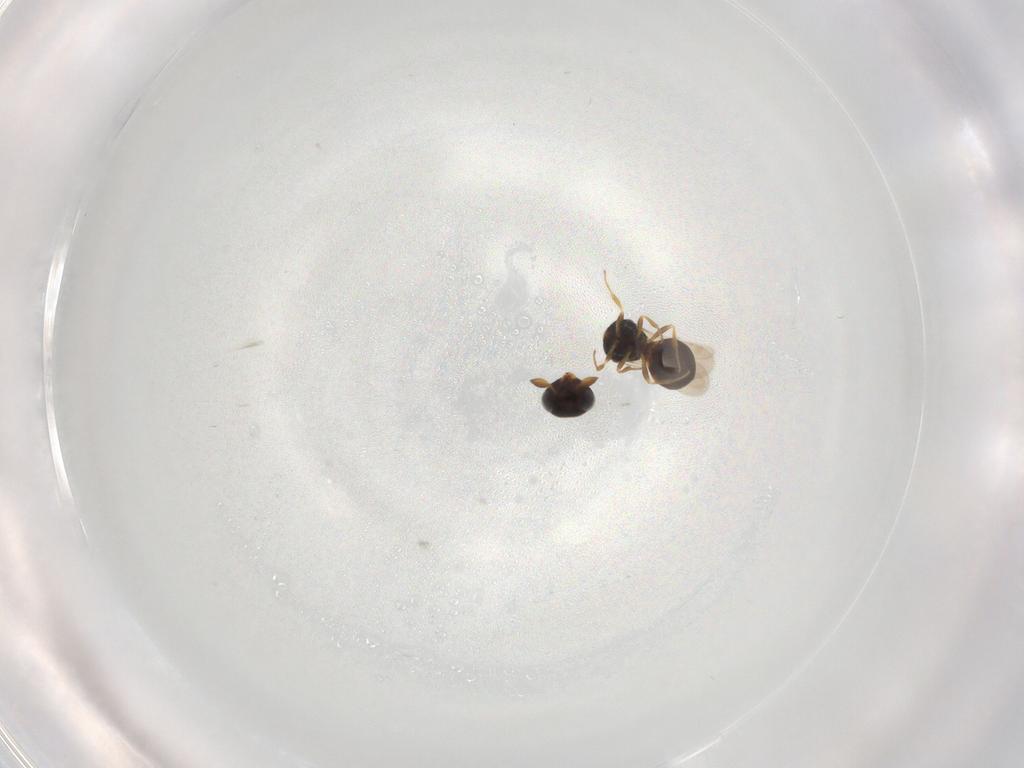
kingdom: Animalia
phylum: Arthropoda
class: Insecta
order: Hymenoptera
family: Scelionidae
